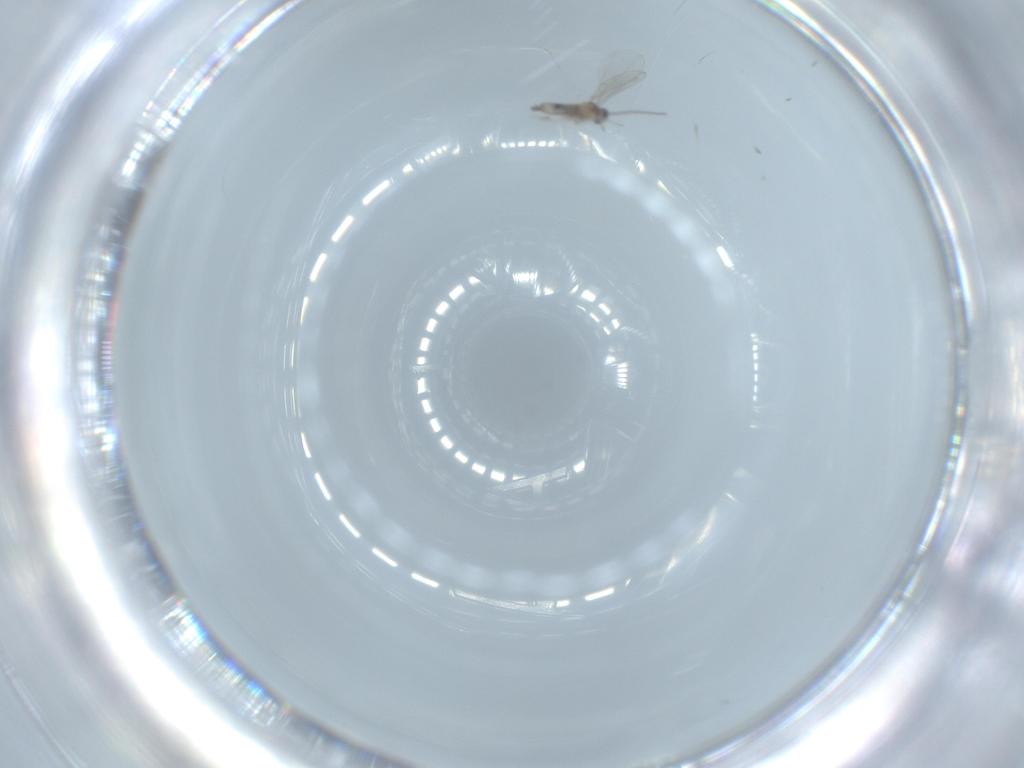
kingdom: Animalia
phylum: Arthropoda
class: Insecta
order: Diptera
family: Cecidomyiidae
